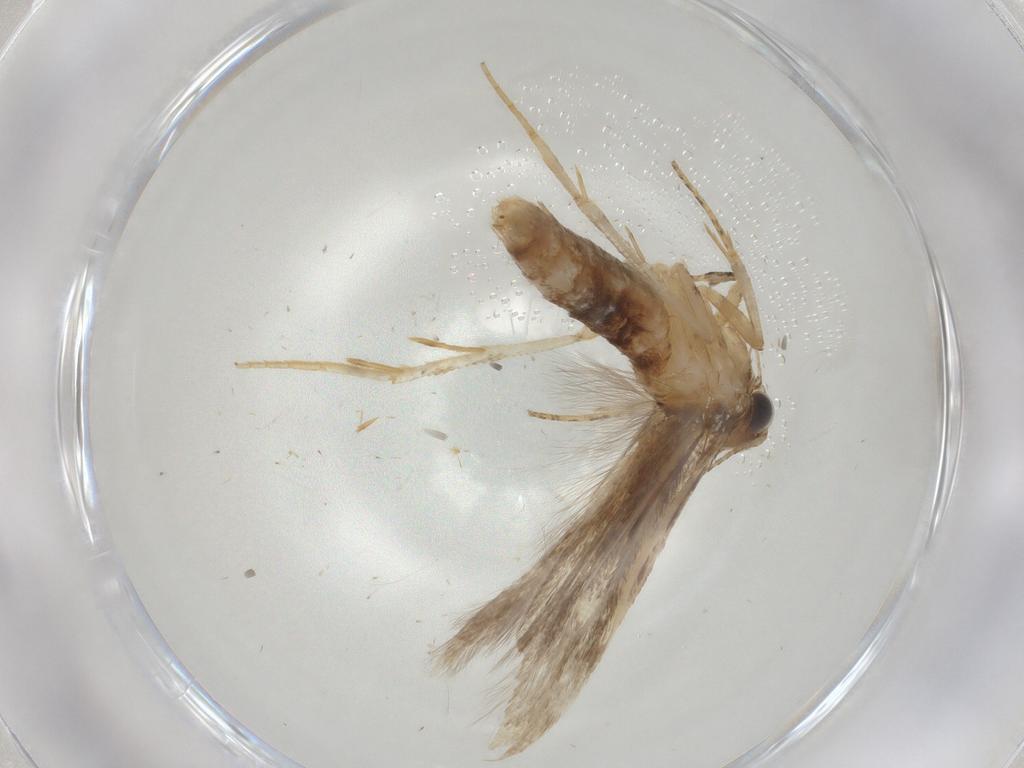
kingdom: Animalia
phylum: Arthropoda
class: Insecta
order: Lepidoptera
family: Gelechiidae
